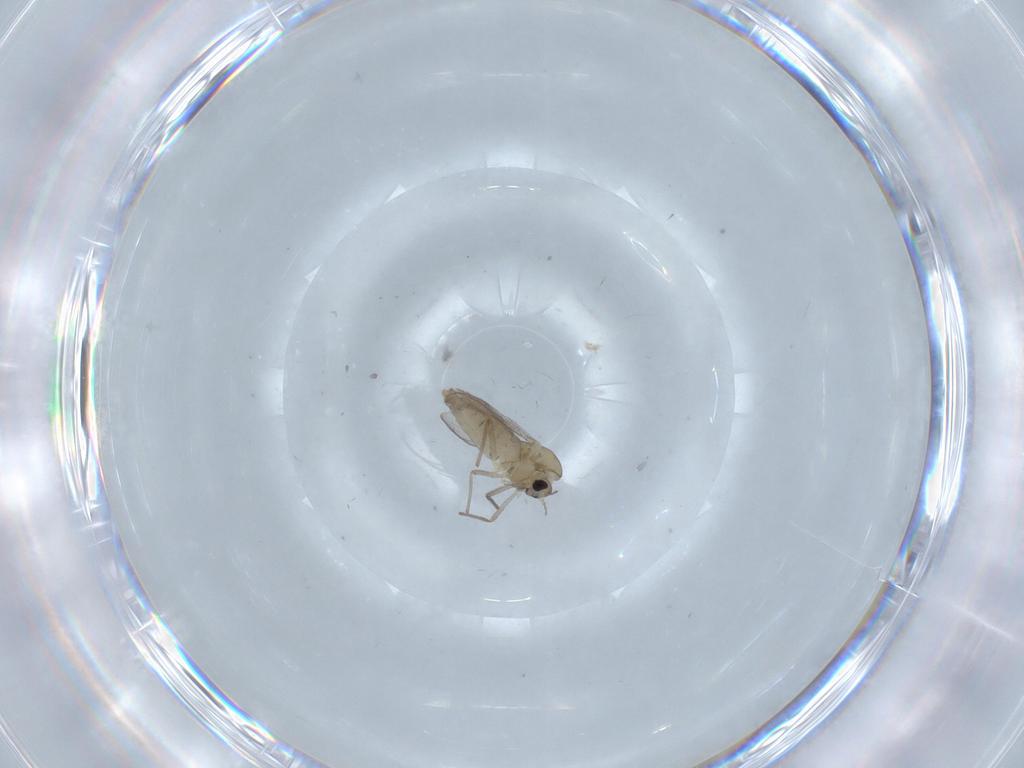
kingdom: Animalia
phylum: Arthropoda
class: Insecta
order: Diptera
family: Chironomidae
